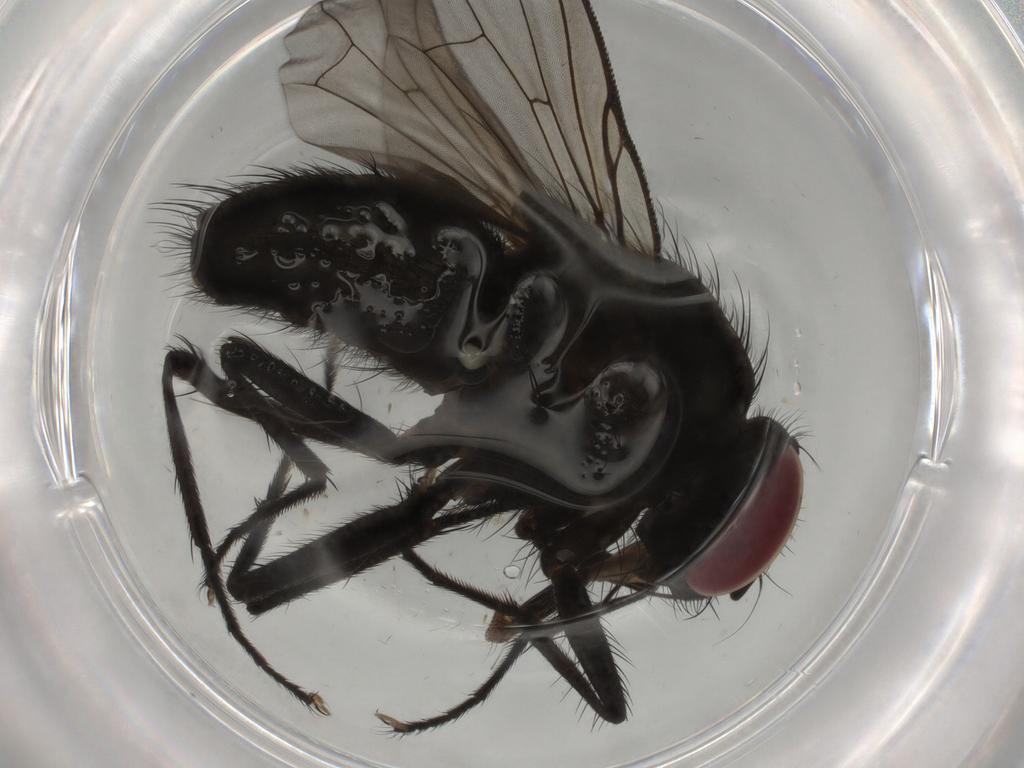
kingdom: Animalia
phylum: Arthropoda
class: Insecta
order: Diptera
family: Muscidae
